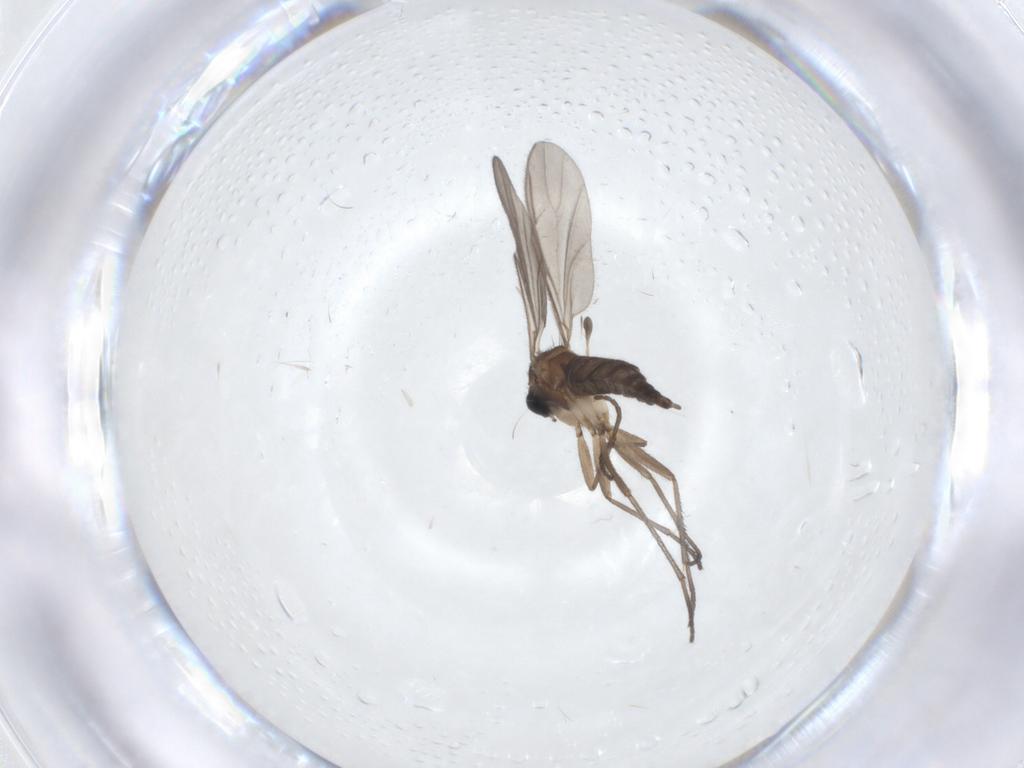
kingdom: Animalia
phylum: Arthropoda
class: Insecta
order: Diptera
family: Sciaridae
